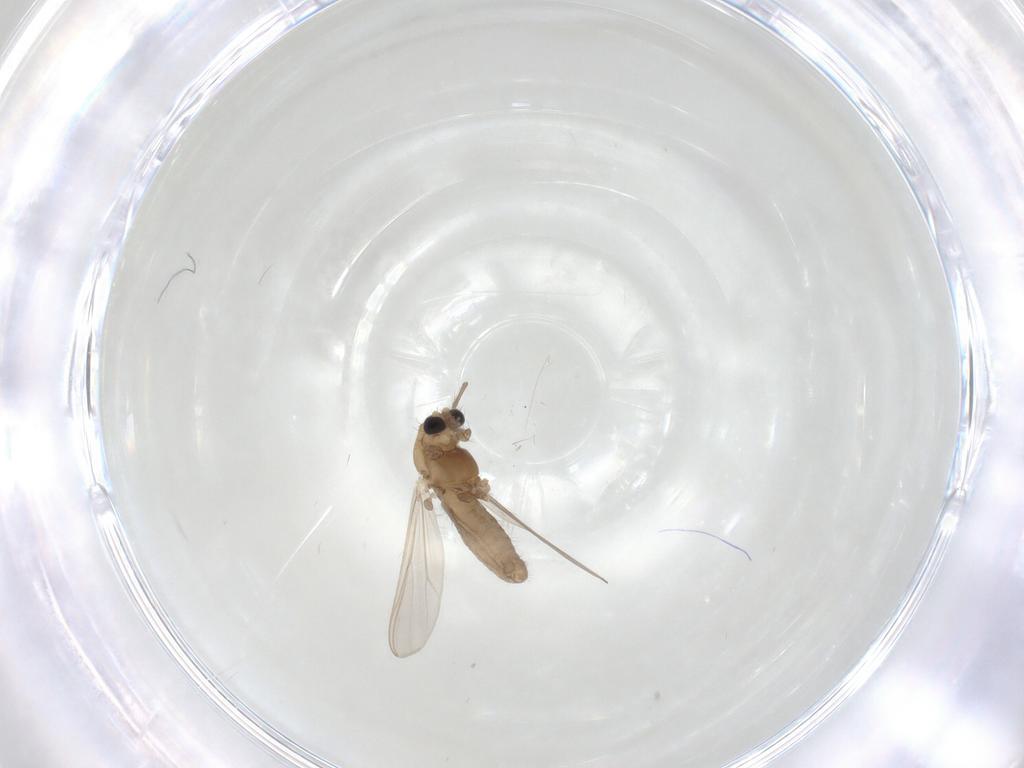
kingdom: Animalia
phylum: Arthropoda
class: Insecta
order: Diptera
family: Chironomidae
